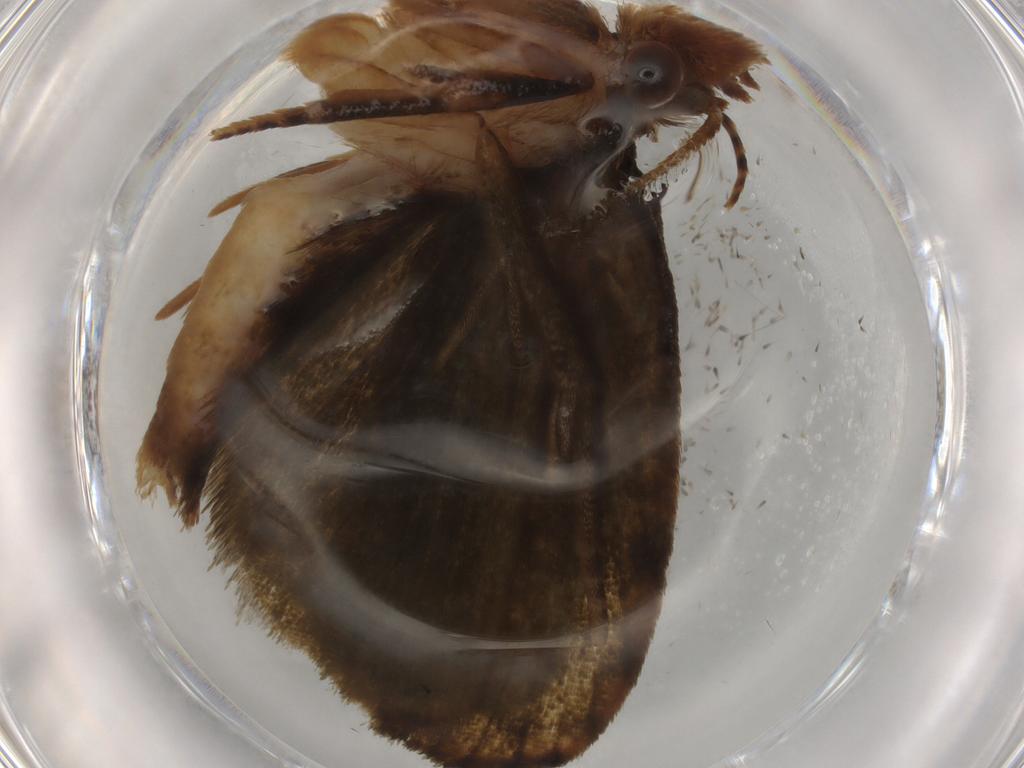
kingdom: Animalia
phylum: Arthropoda
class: Insecta
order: Lepidoptera
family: Geometridae
